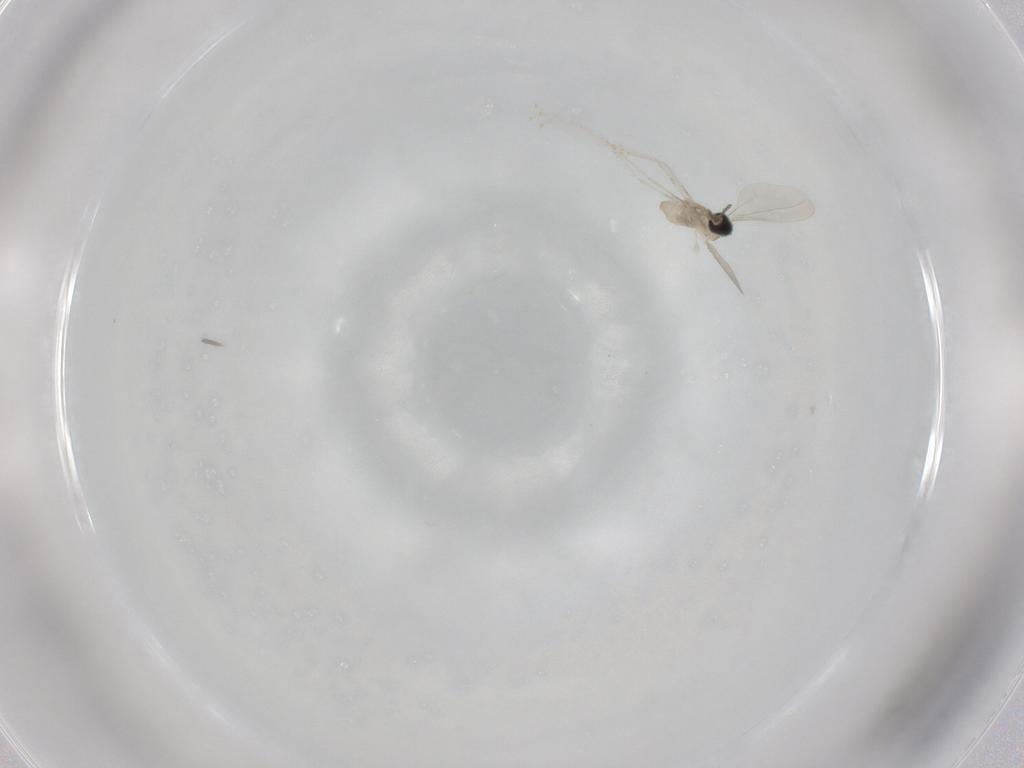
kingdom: Animalia
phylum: Arthropoda
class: Insecta
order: Diptera
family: Cecidomyiidae
